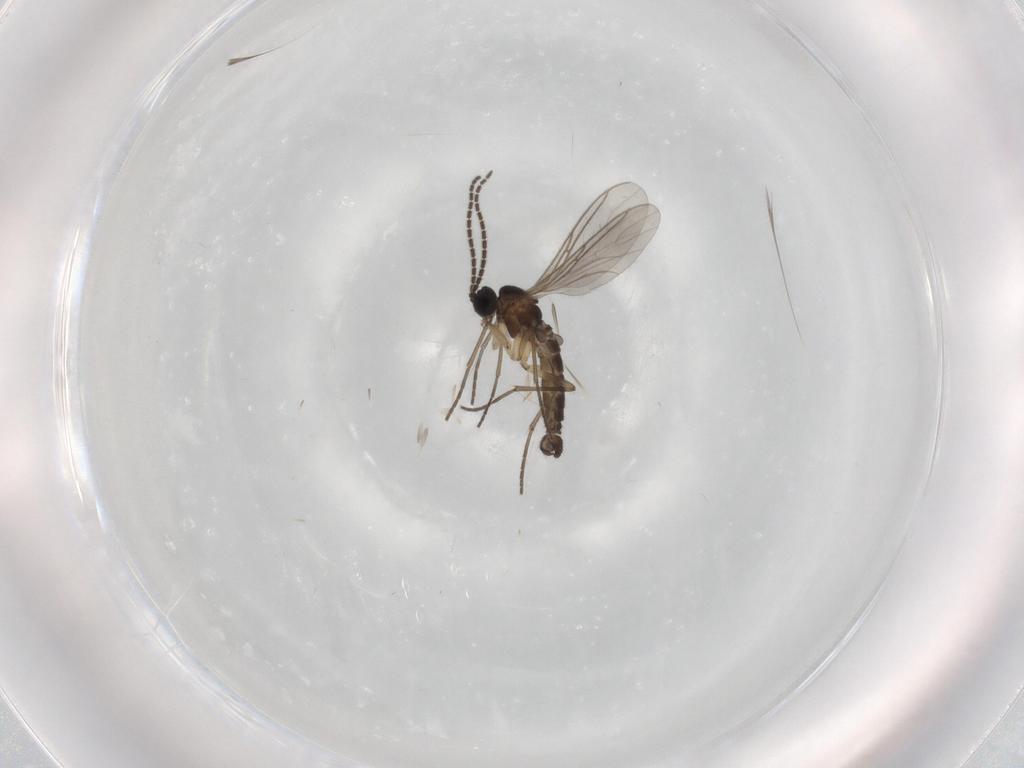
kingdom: Animalia
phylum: Arthropoda
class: Insecta
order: Diptera
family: Sciaridae
